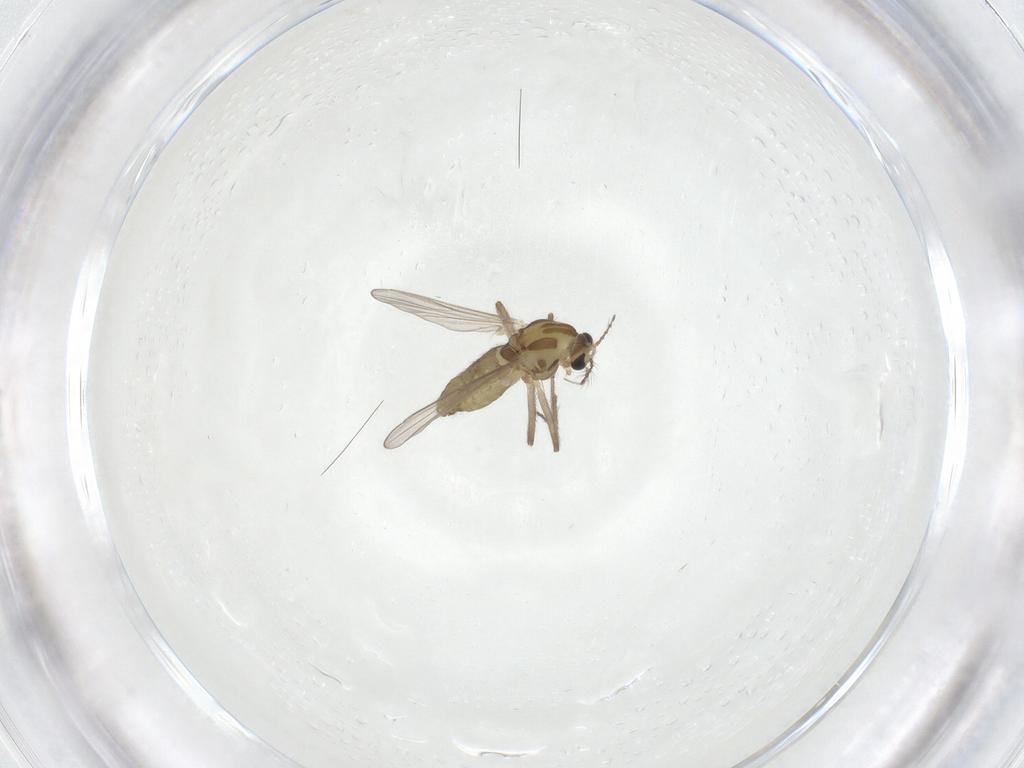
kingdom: Animalia
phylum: Arthropoda
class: Insecta
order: Diptera
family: Chironomidae
